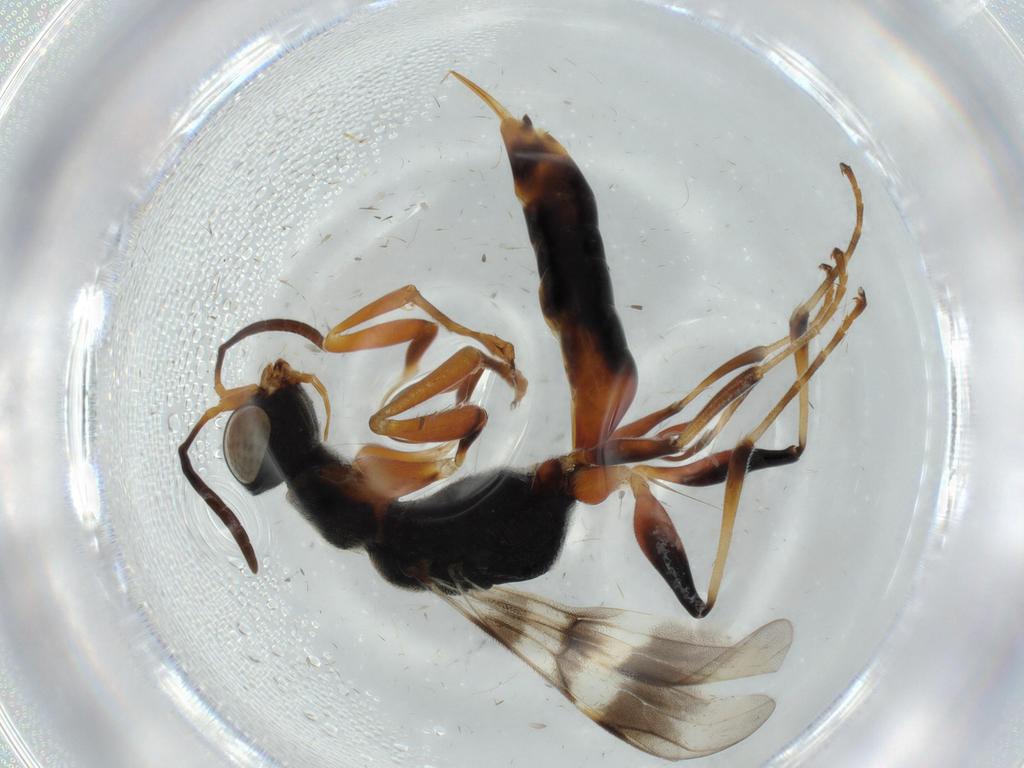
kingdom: Animalia
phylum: Arthropoda
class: Insecta
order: Hymenoptera
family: Dryinidae
